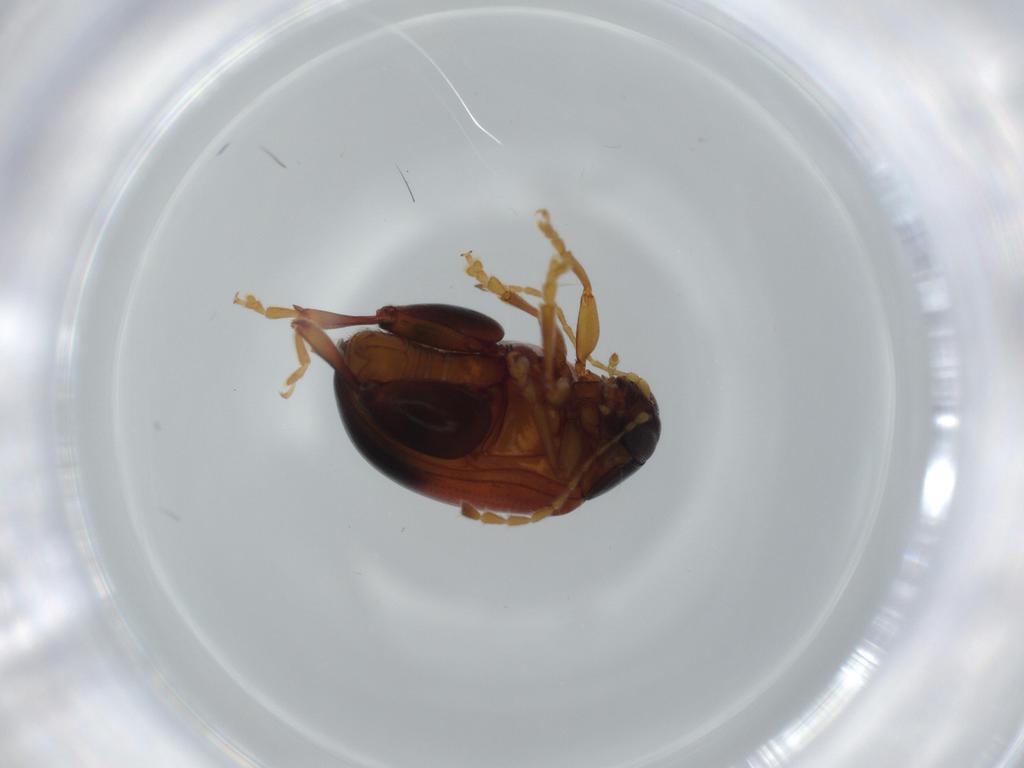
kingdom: Animalia
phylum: Arthropoda
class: Insecta
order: Coleoptera
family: Chrysomelidae
